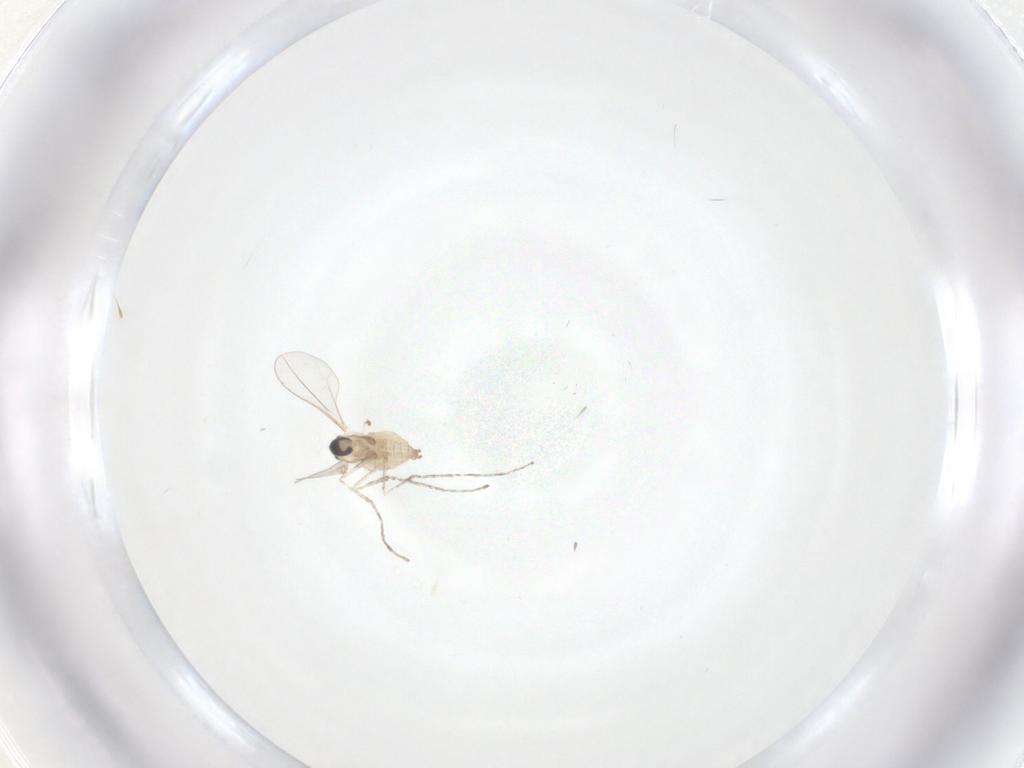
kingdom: Animalia
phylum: Arthropoda
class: Insecta
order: Diptera
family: Cecidomyiidae
